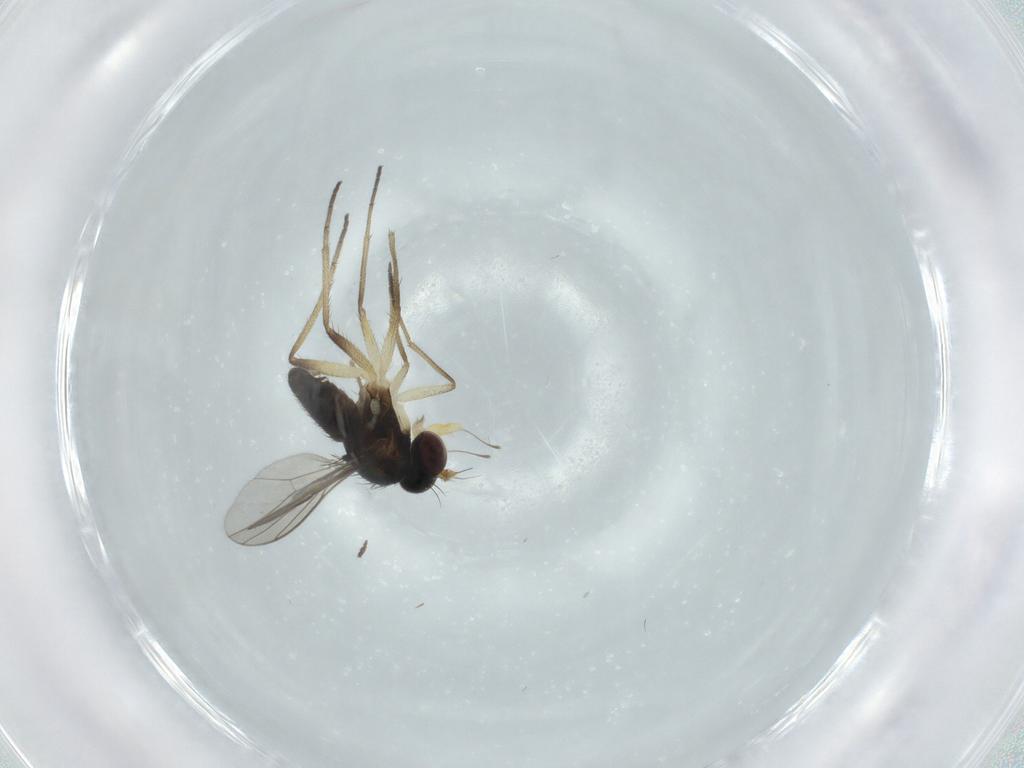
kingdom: Animalia
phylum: Arthropoda
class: Insecta
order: Diptera
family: Dolichopodidae
